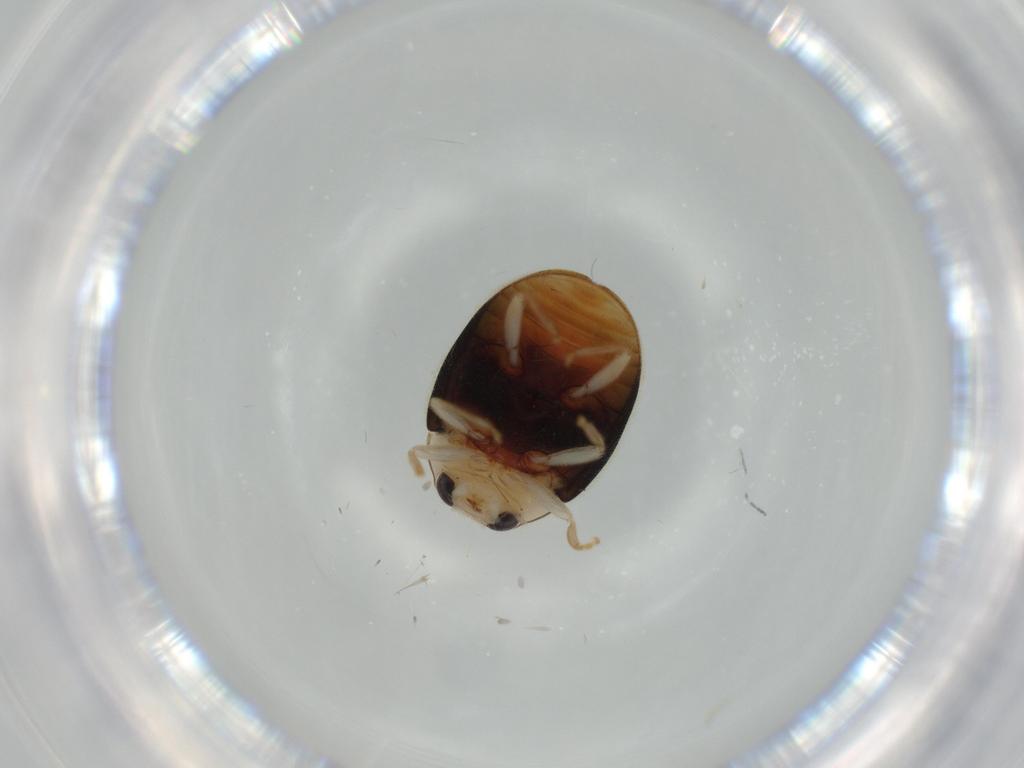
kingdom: Animalia
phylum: Arthropoda
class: Insecta
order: Coleoptera
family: Coccinellidae
